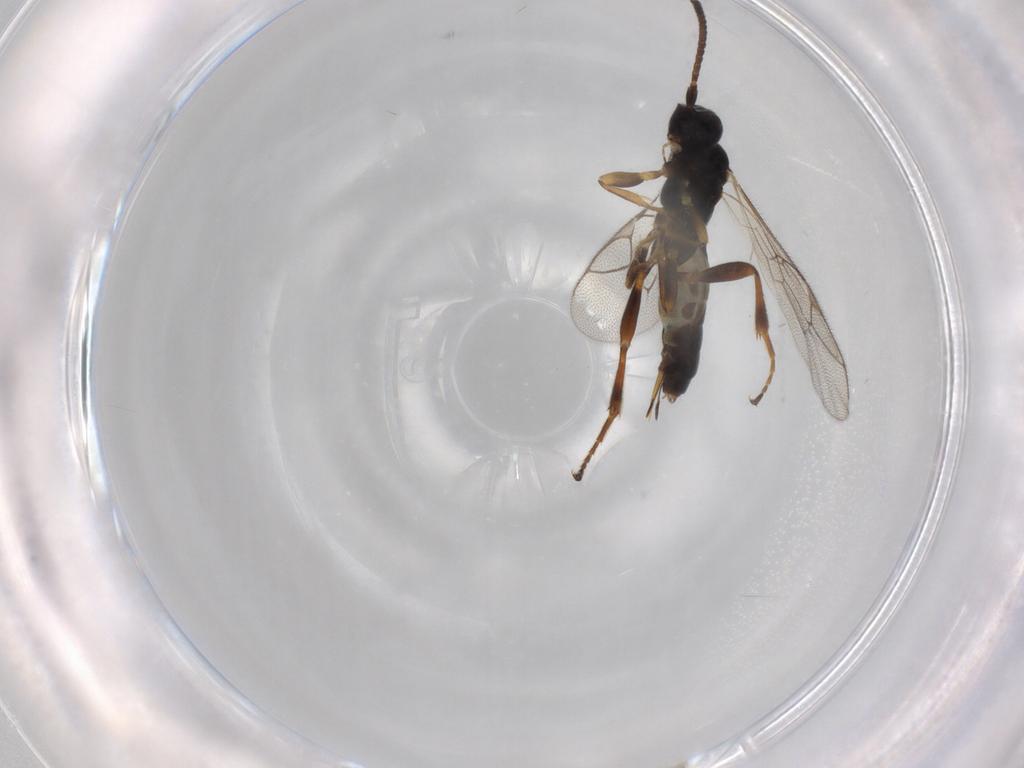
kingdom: Animalia
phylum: Arthropoda
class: Insecta
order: Hymenoptera
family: Ichneumonidae
